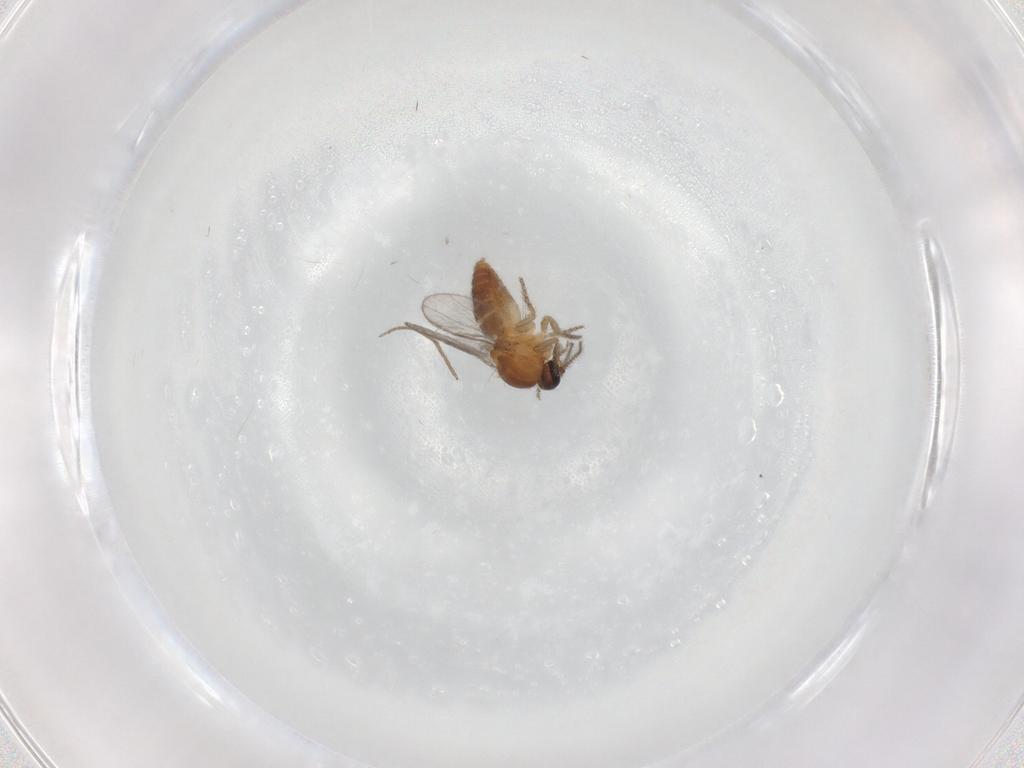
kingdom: Animalia
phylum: Arthropoda
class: Insecta
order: Diptera
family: Ceratopogonidae
